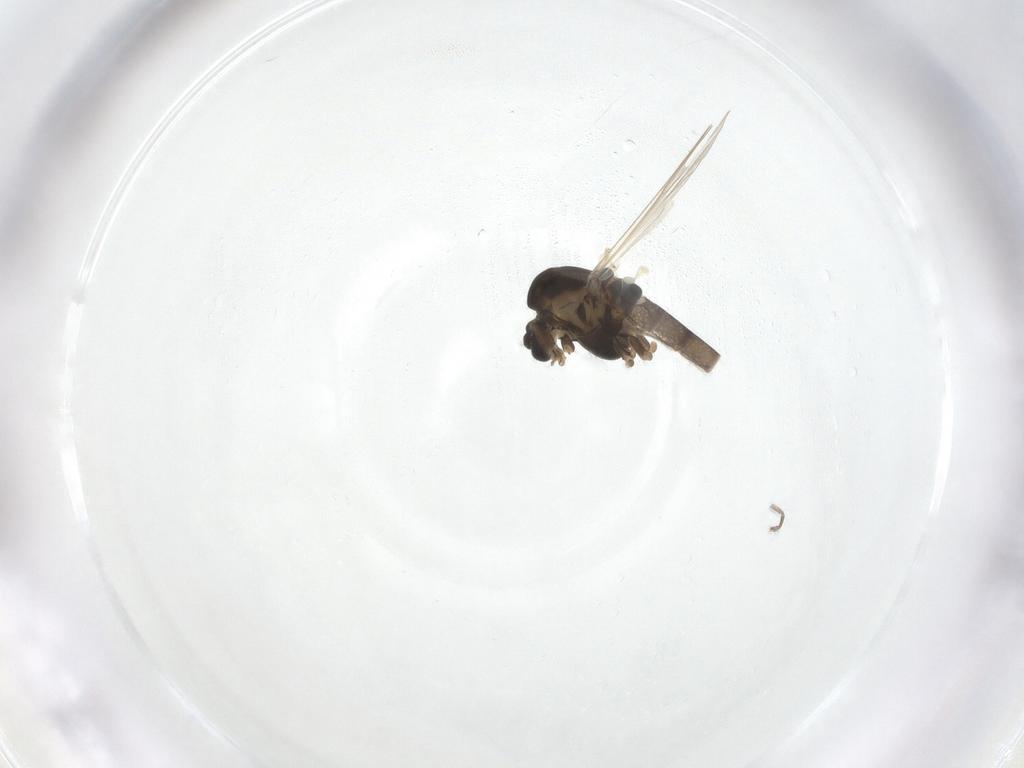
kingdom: Animalia
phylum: Arthropoda
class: Insecta
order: Diptera
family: Chironomidae
